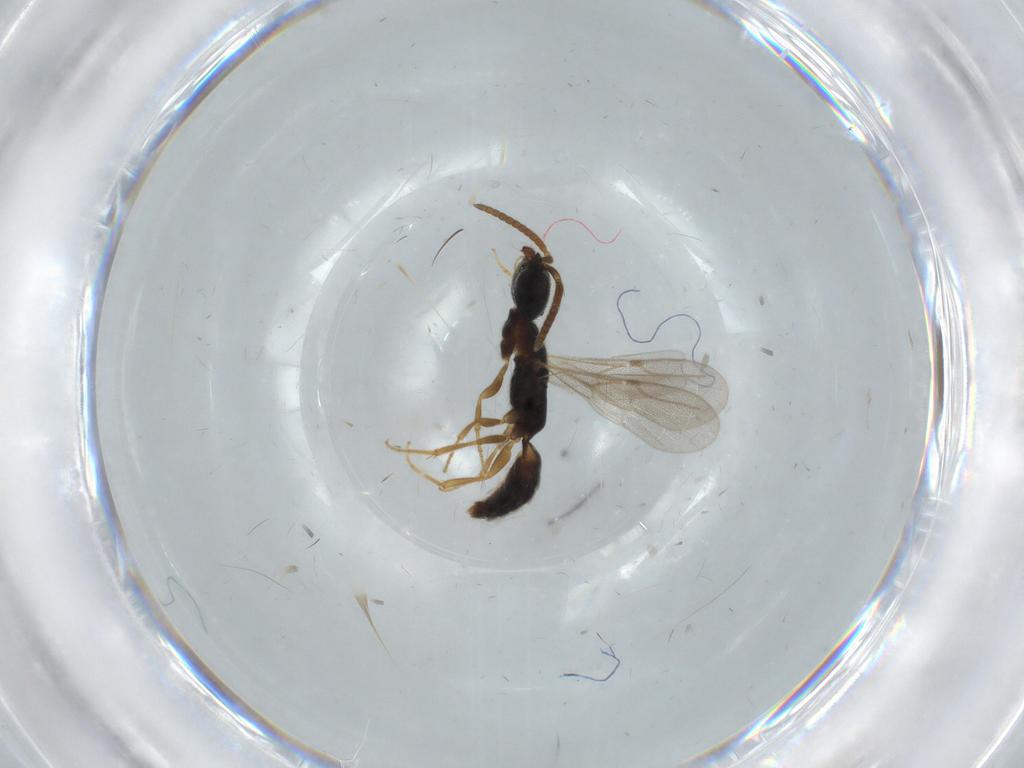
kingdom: Animalia
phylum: Arthropoda
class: Insecta
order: Hymenoptera
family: Bethylidae
